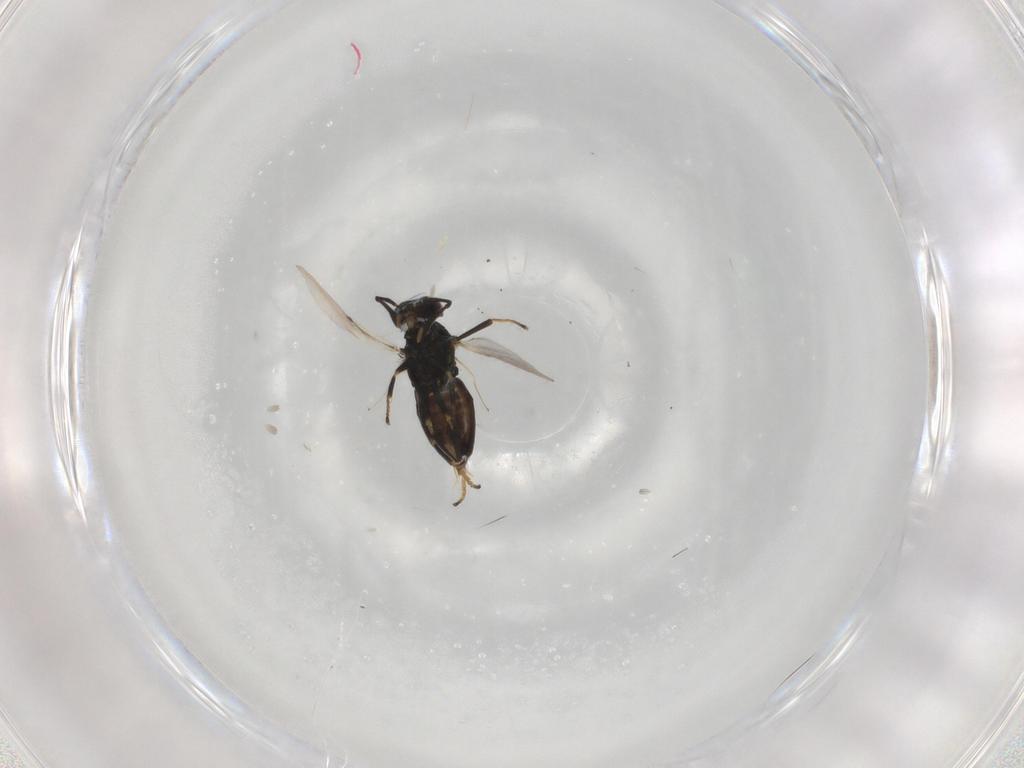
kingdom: Animalia
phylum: Arthropoda
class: Insecta
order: Hymenoptera
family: Encyrtidae
